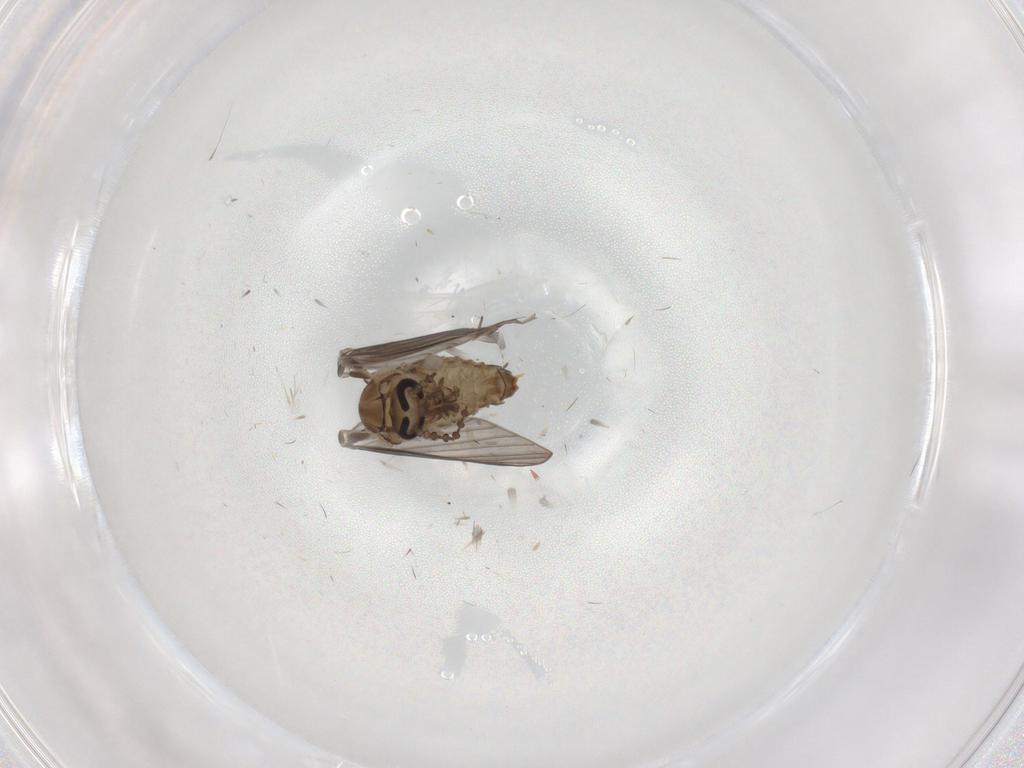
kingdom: Animalia
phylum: Arthropoda
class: Insecta
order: Diptera
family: Psychodidae
